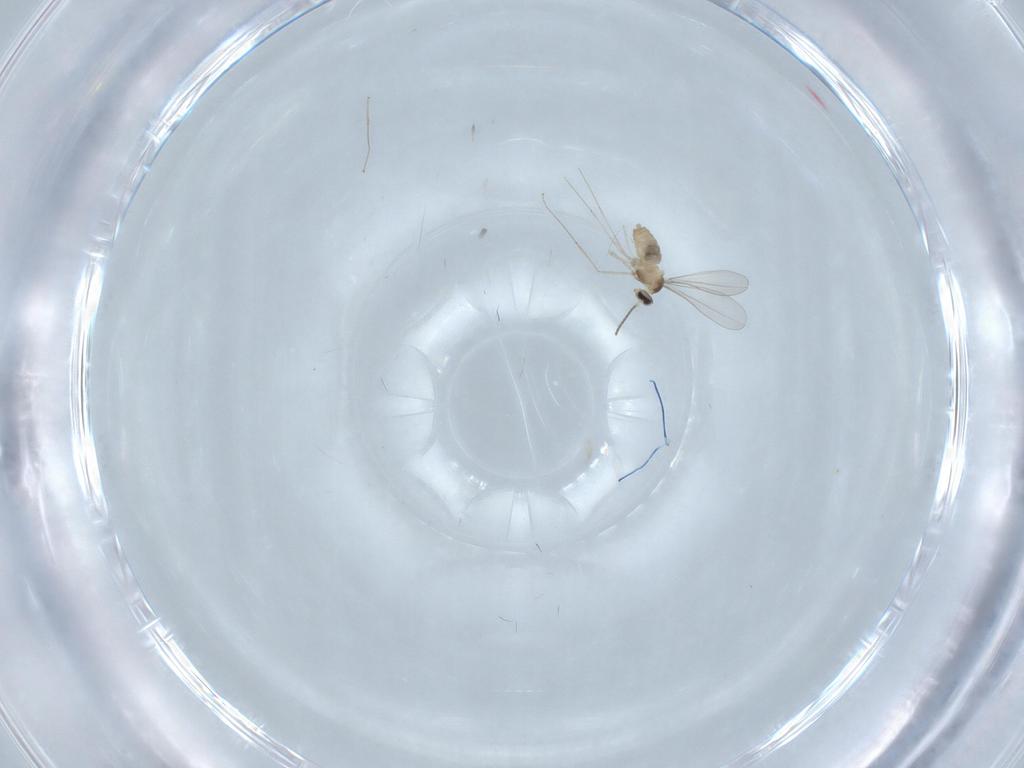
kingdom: Animalia
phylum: Arthropoda
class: Insecta
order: Diptera
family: Cecidomyiidae
